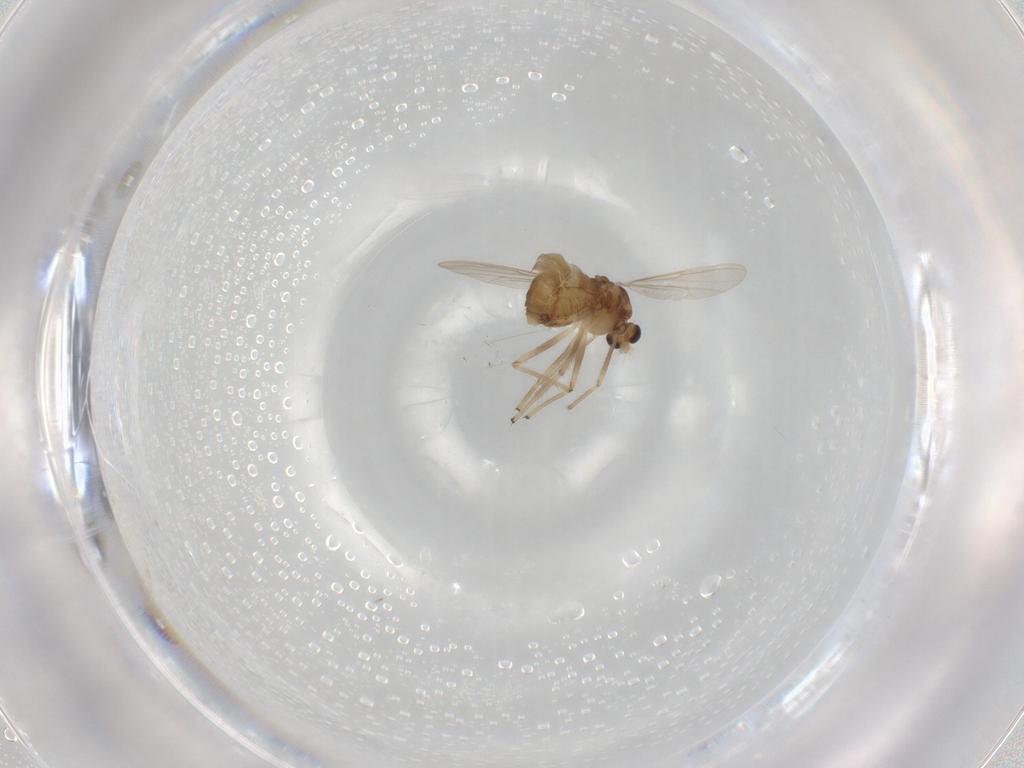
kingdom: Animalia
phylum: Arthropoda
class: Insecta
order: Diptera
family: Chironomidae
